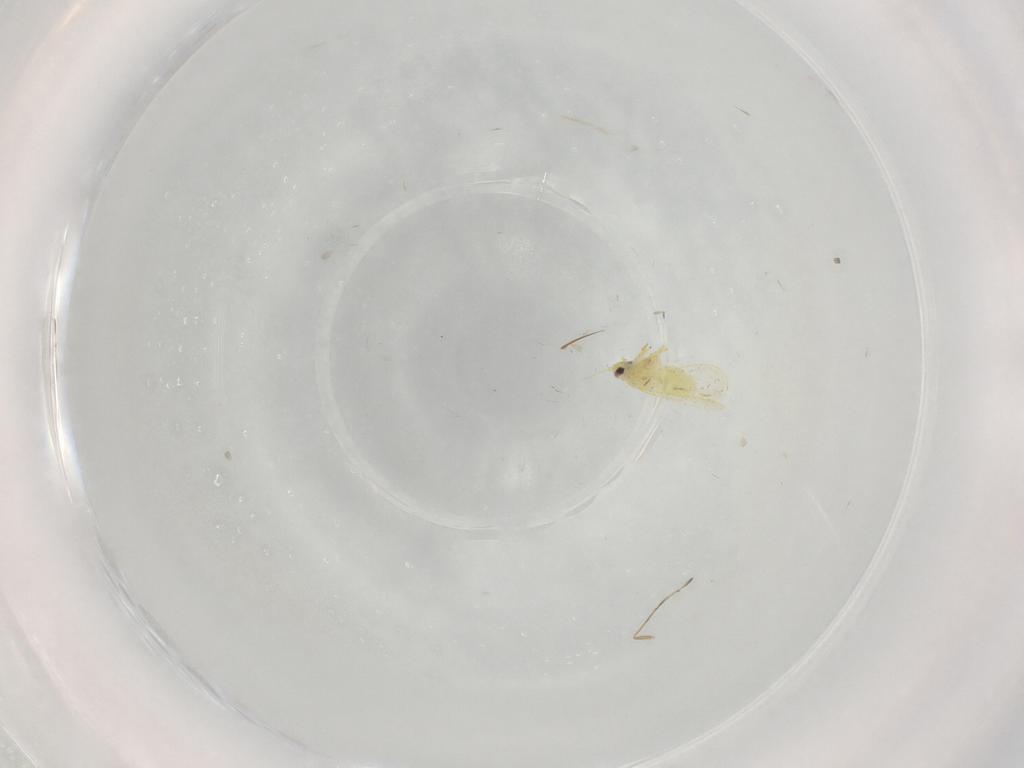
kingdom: Animalia
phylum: Arthropoda
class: Insecta
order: Hemiptera
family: Aleyrodidae
